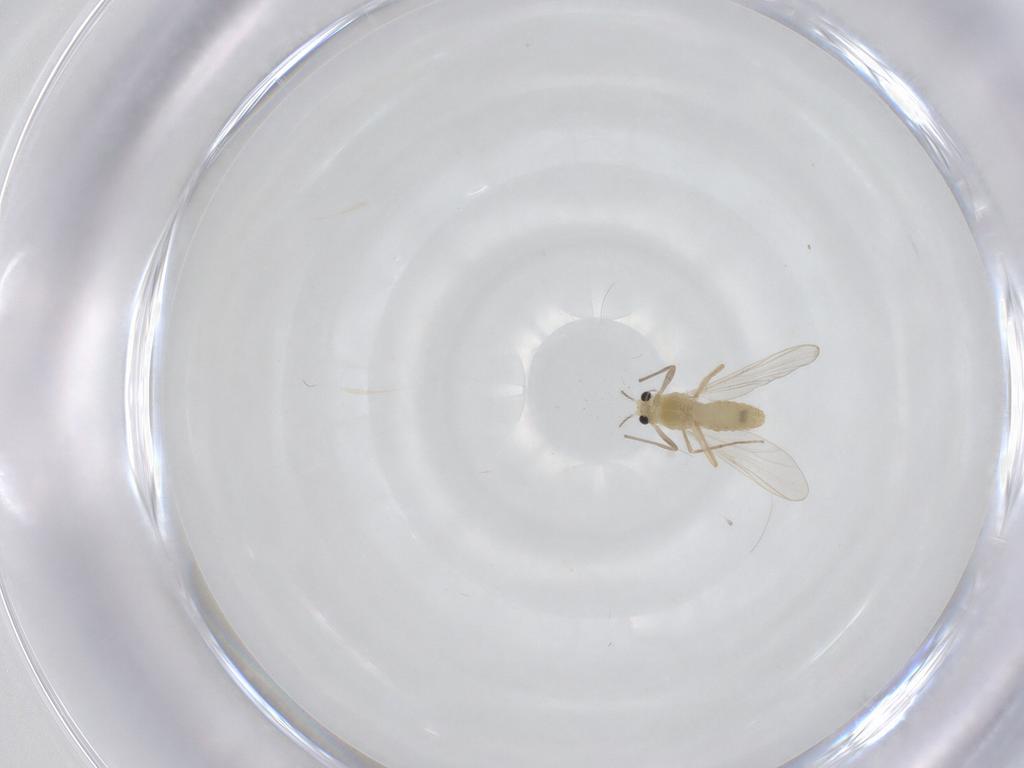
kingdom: Animalia
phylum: Arthropoda
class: Insecta
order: Diptera
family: Chironomidae
